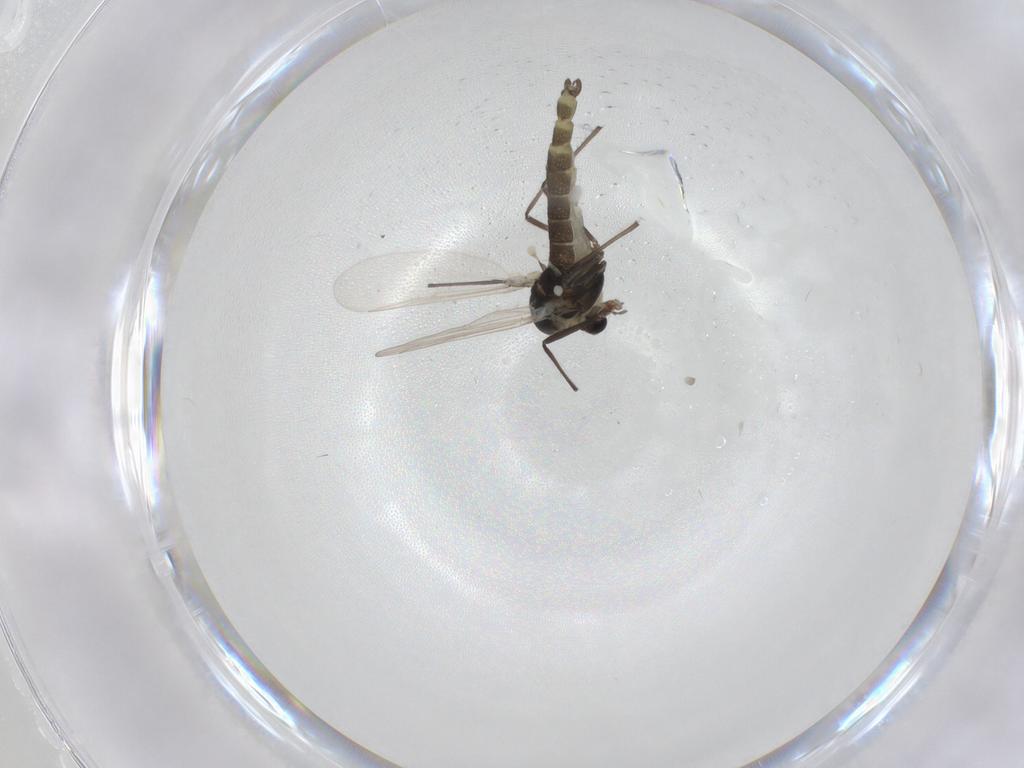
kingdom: Animalia
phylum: Arthropoda
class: Insecta
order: Diptera
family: Chironomidae
